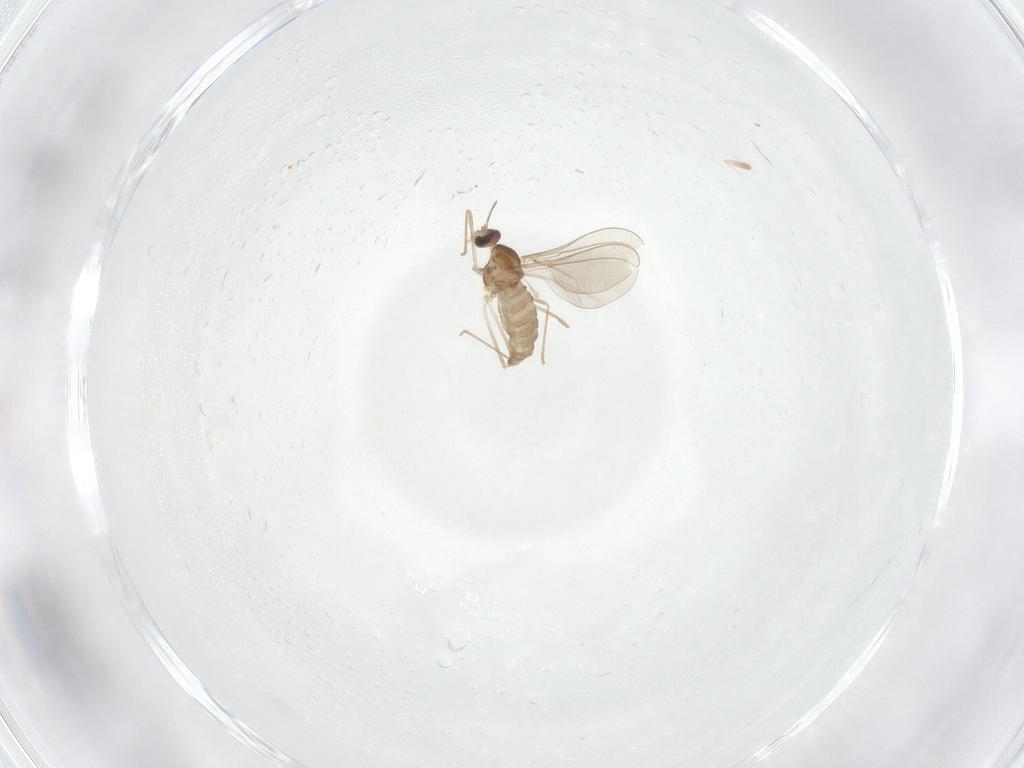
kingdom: Animalia
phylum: Arthropoda
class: Insecta
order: Diptera
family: Cecidomyiidae
